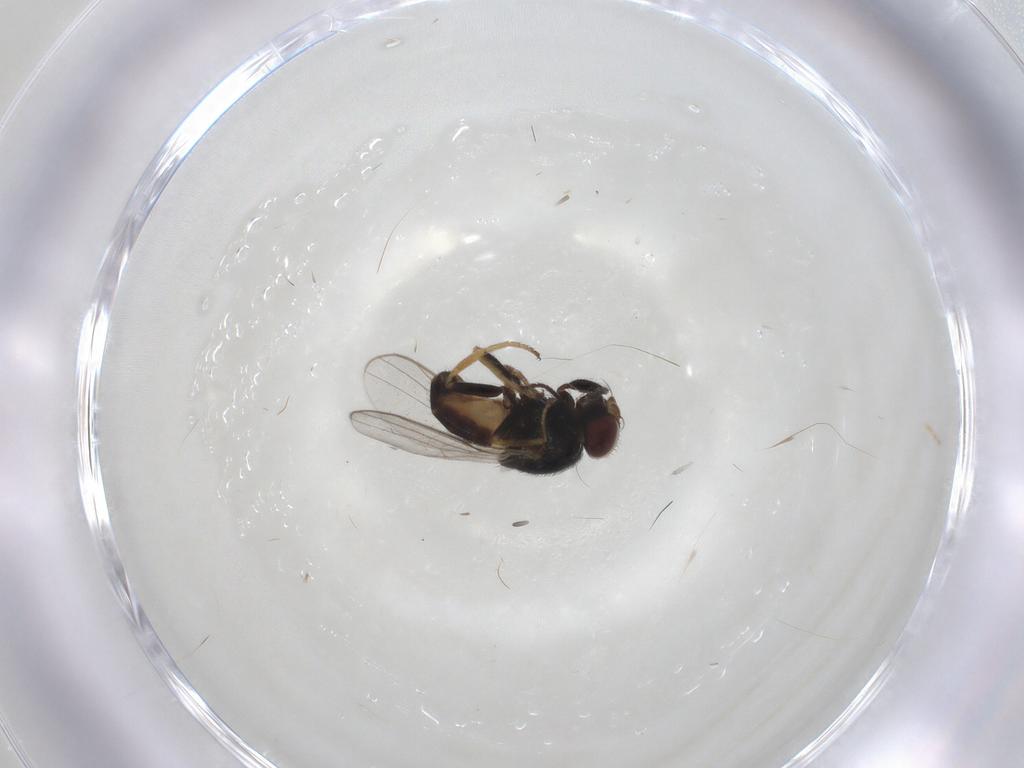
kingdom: Animalia
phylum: Arthropoda
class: Insecta
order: Diptera
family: Chloropidae
